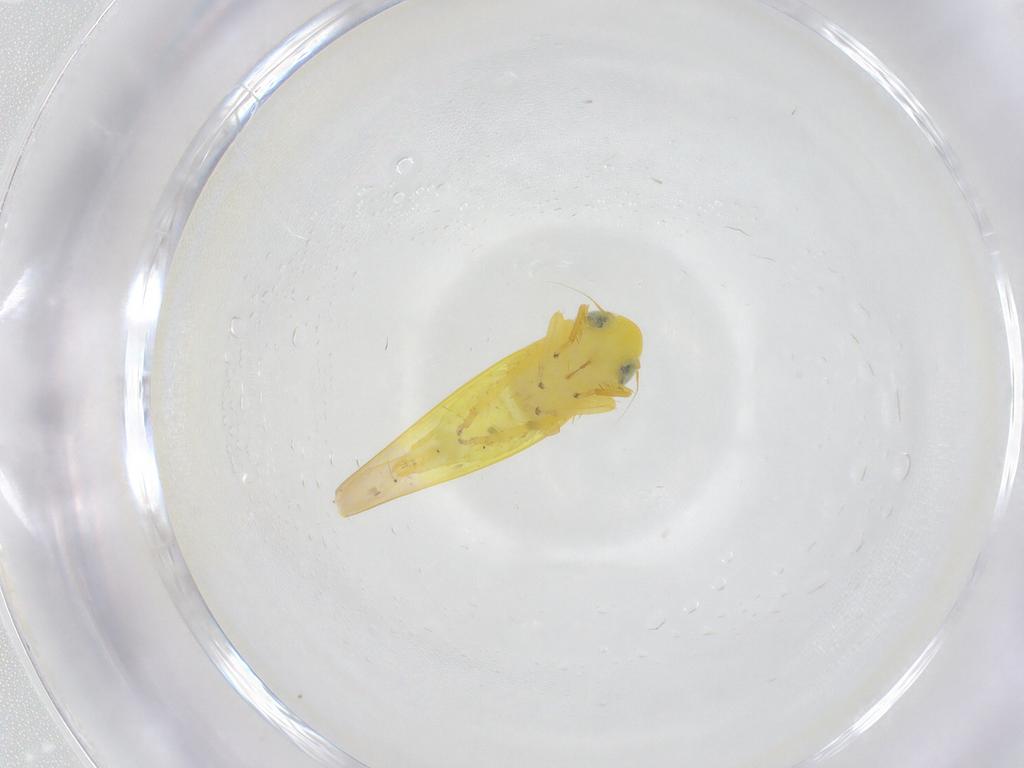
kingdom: Animalia
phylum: Arthropoda
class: Insecta
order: Hemiptera
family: Cicadellidae
